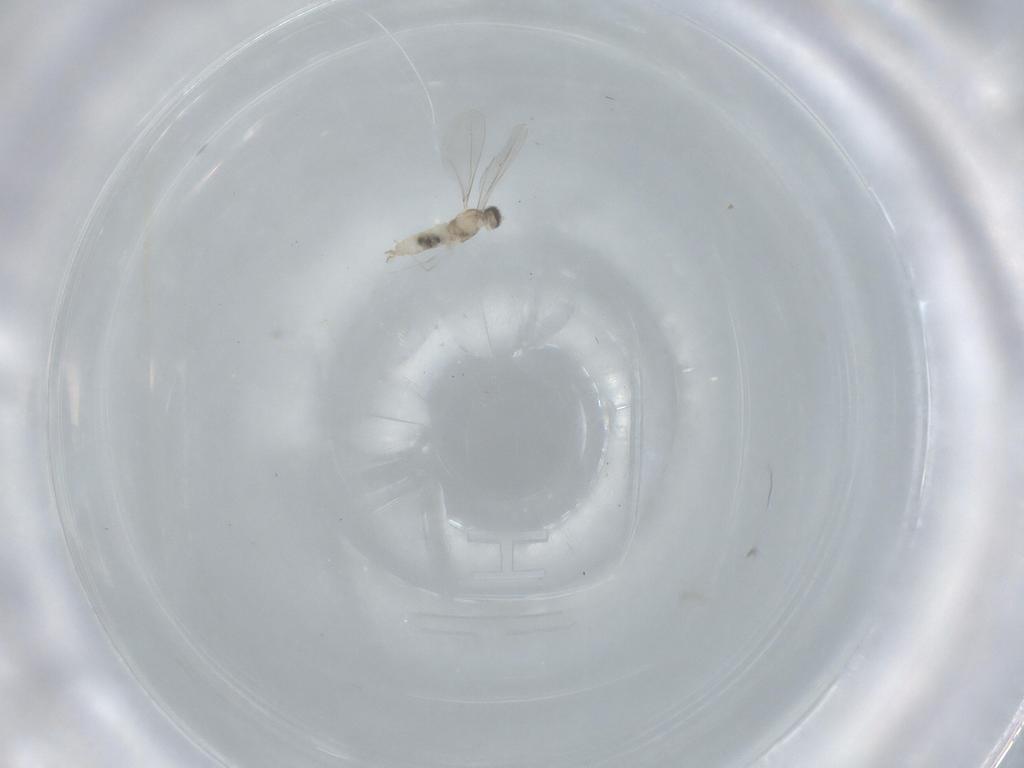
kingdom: Animalia
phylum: Arthropoda
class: Insecta
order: Diptera
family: Cecidomyiidae
